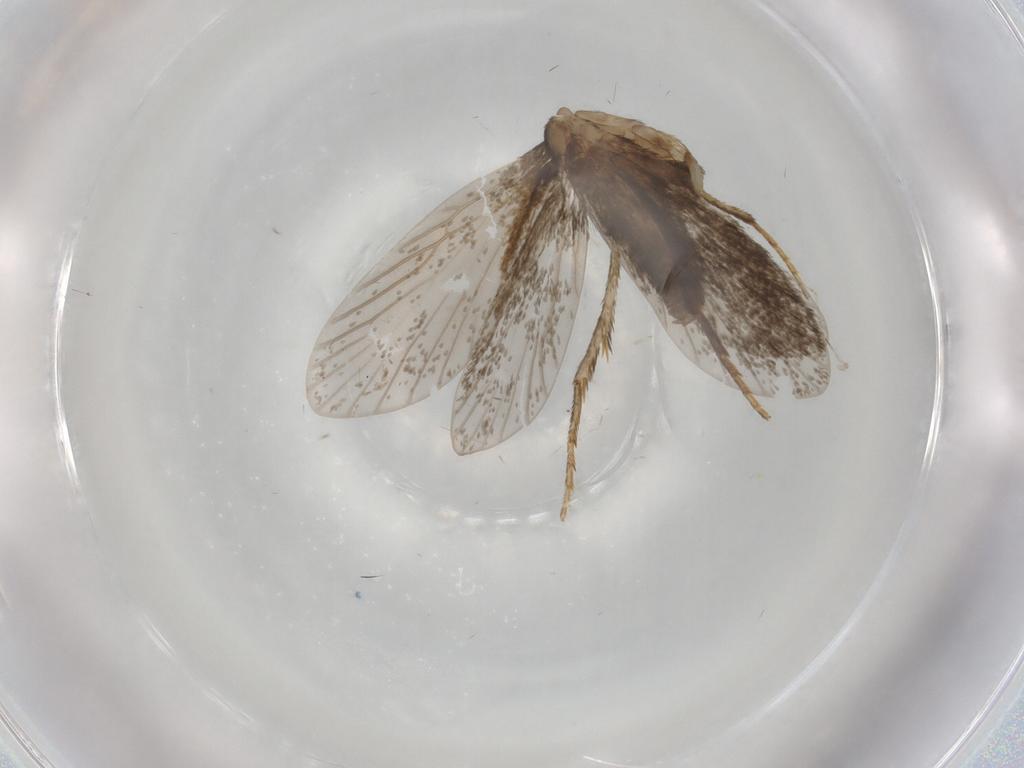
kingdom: Animalia
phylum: Arthropoda
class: Insecta
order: Lepidoptera
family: Micropterigidae
